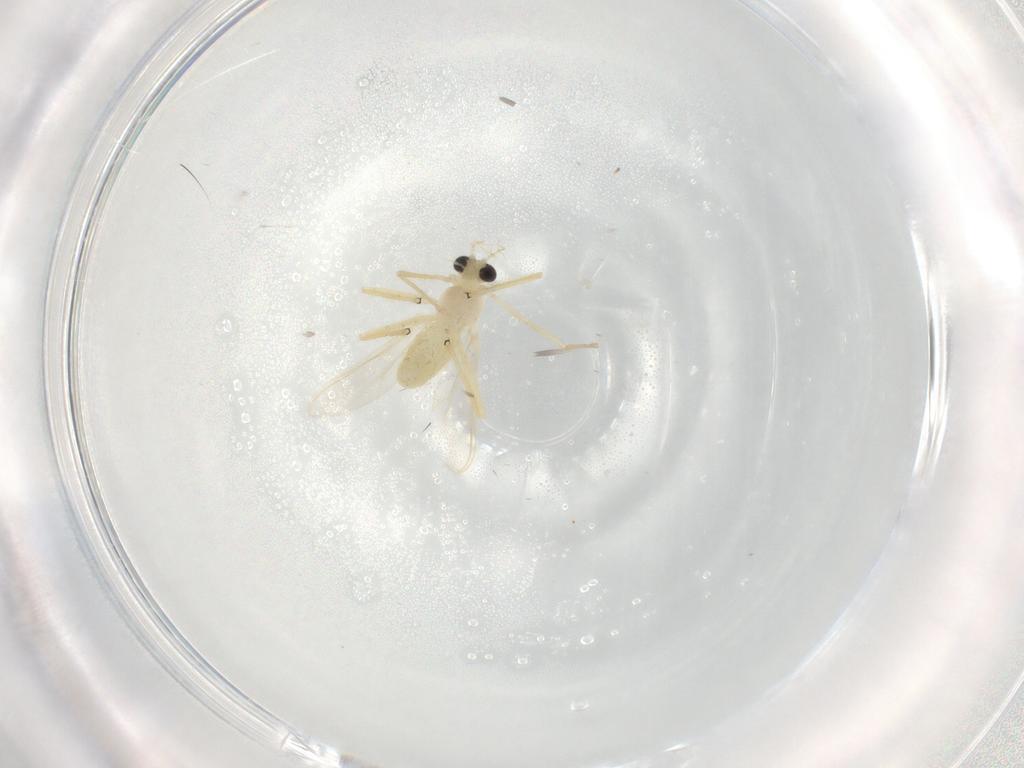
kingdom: Animalia
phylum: Arthropoda
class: Insecta
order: Diptera
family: Chironomidae
